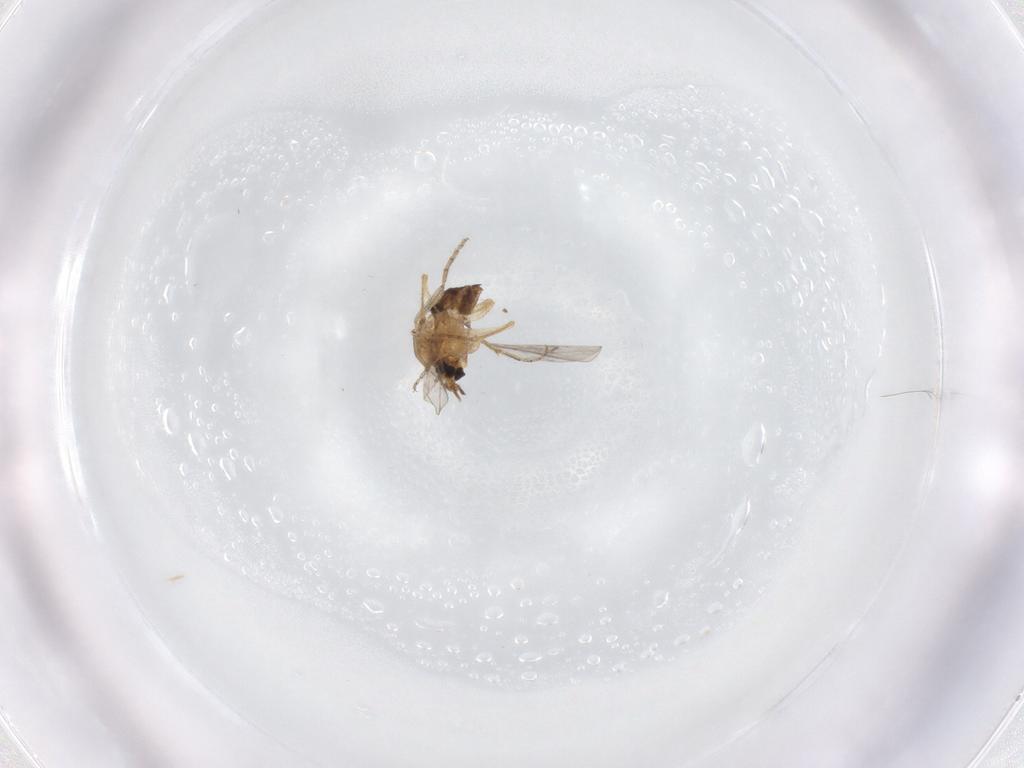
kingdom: Animalia
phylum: Arthropoda
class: Insecta
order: Diptera
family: Ceratopogonidae
